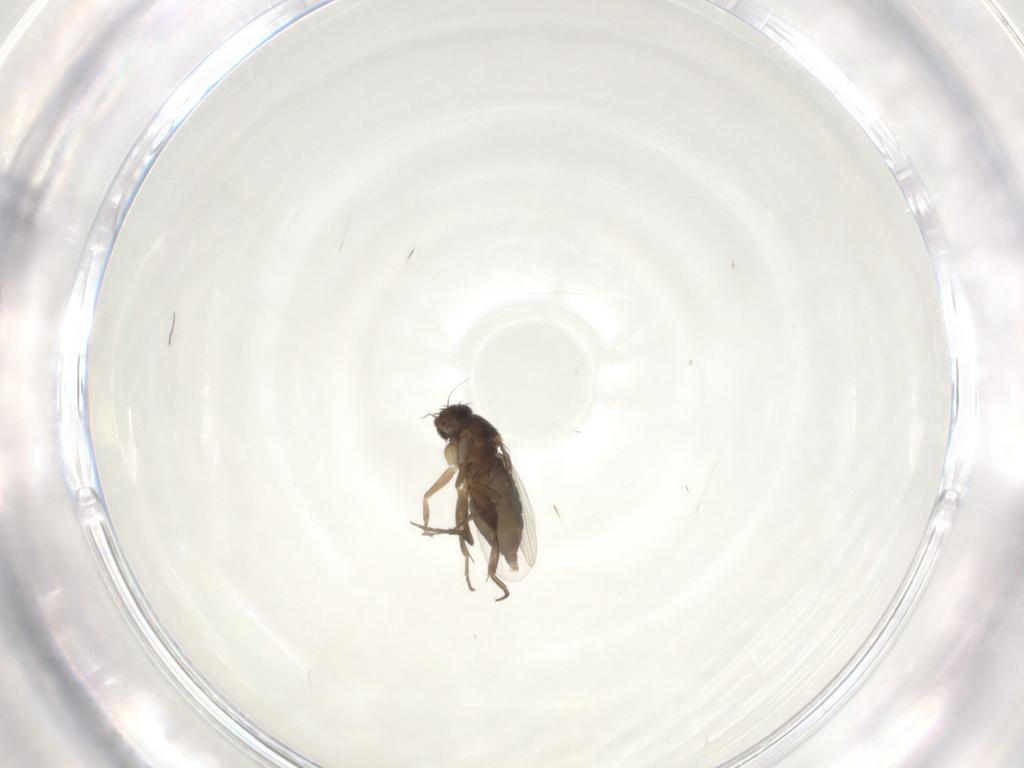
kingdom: Animalia
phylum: Arthropoda
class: Insecta
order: Diptera
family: Phoridae
